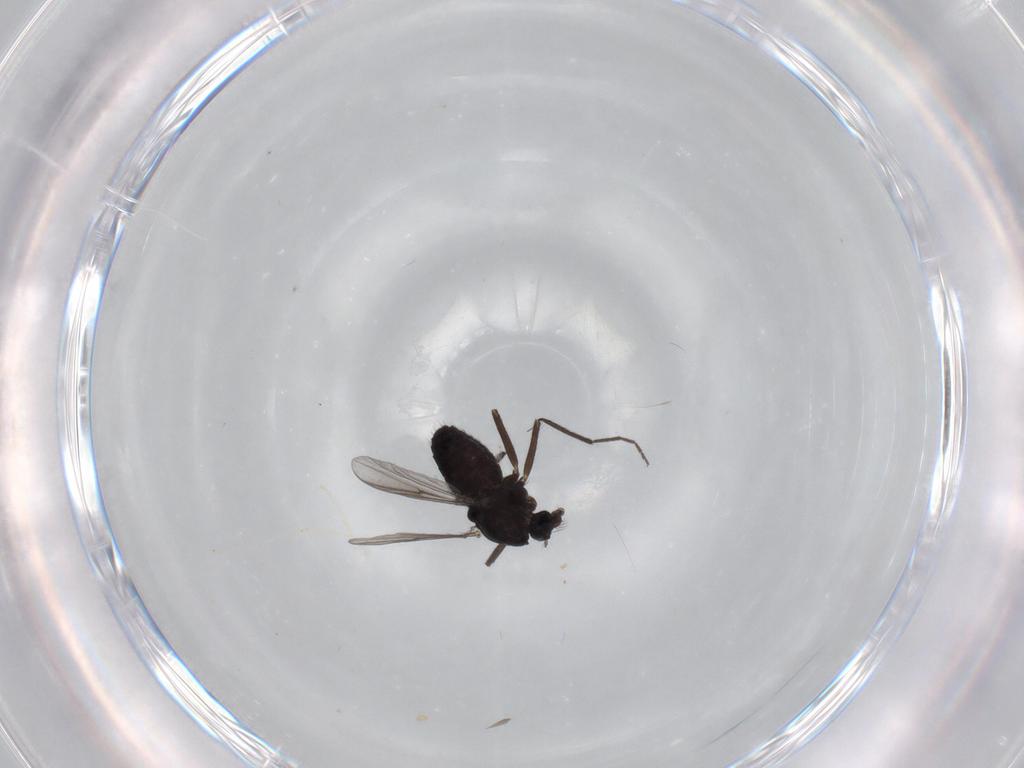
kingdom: Animalia
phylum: Arthropoda
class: Insecta
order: Diptera
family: Chironomidae
